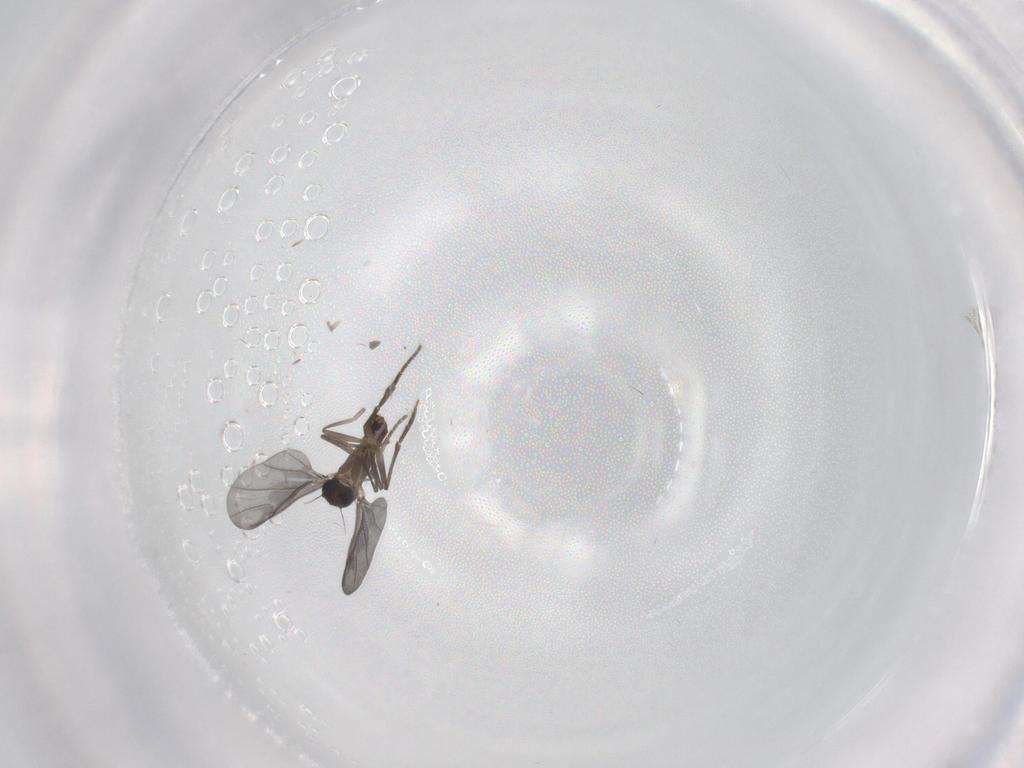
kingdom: Animalia
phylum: Arthropoda
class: Insecta
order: Diptera
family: Phoridae
